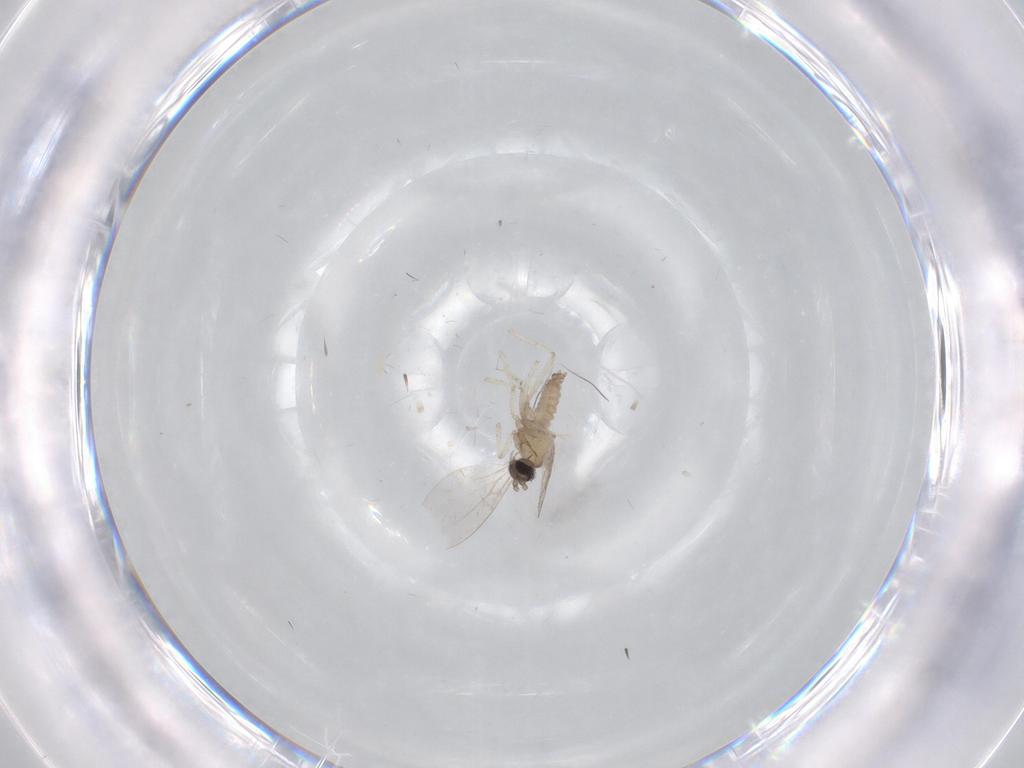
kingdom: Animalia
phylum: Arthropoda
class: Insecta
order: Diptera
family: Cecidomyiidae
